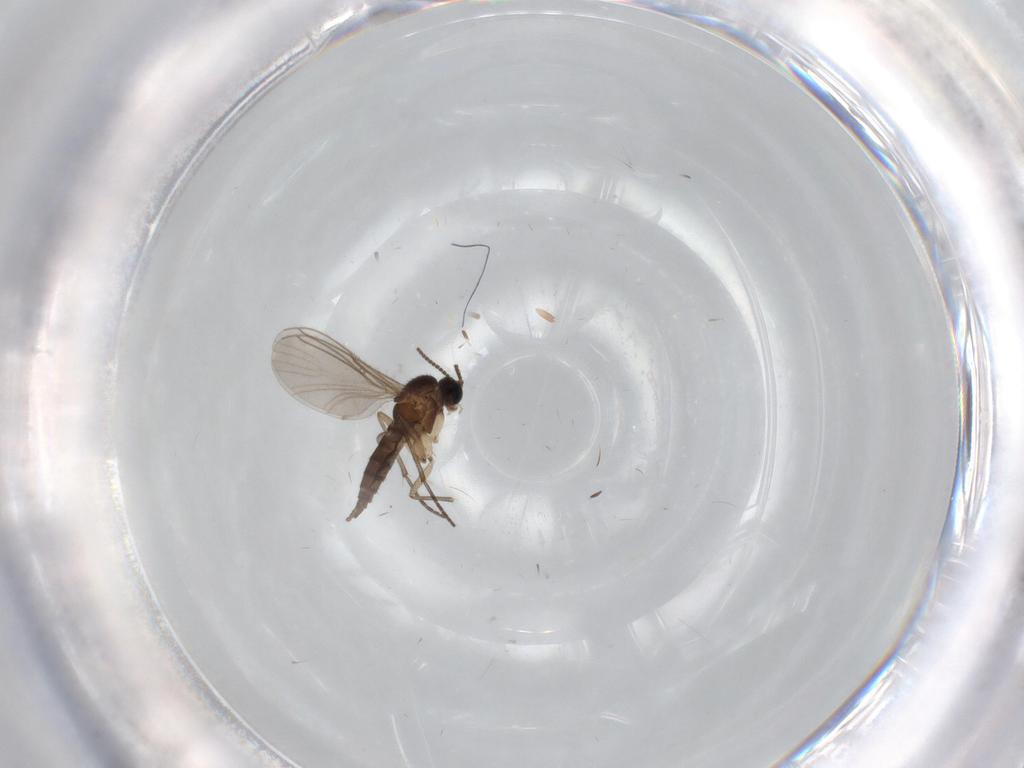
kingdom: Animalia
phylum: Arthropoda
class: Insecta
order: Diptera
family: Sciaridae
